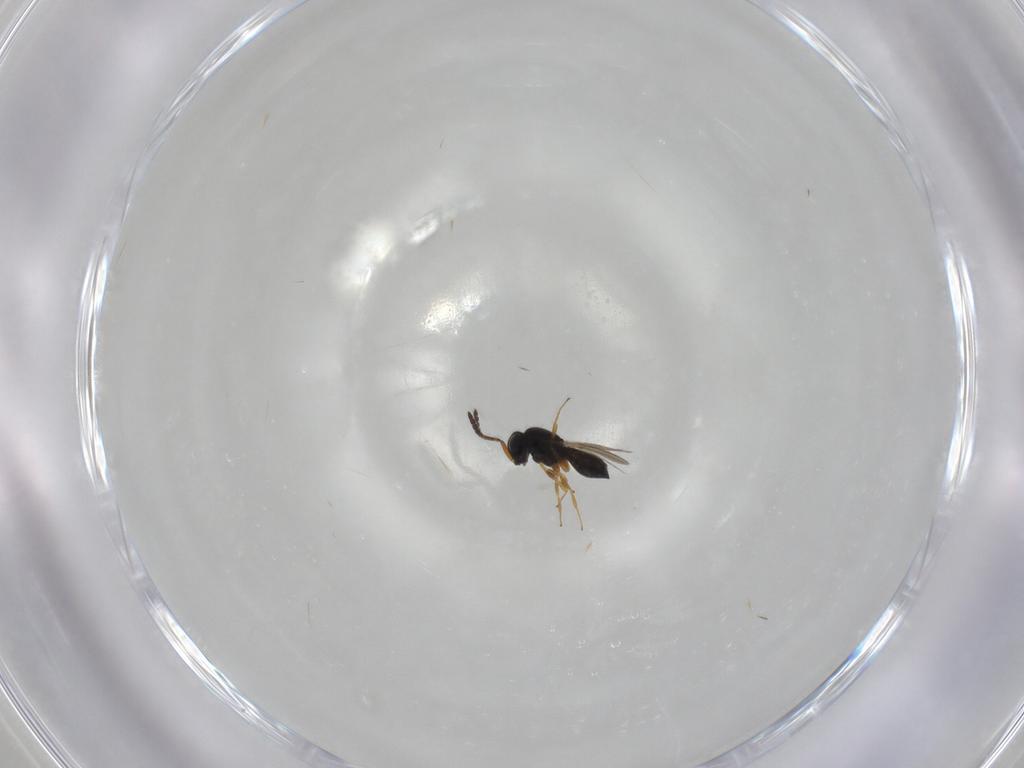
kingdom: Animalia
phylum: Arthropoda
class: Insecta
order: Hymenoptera
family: Scelionidae
